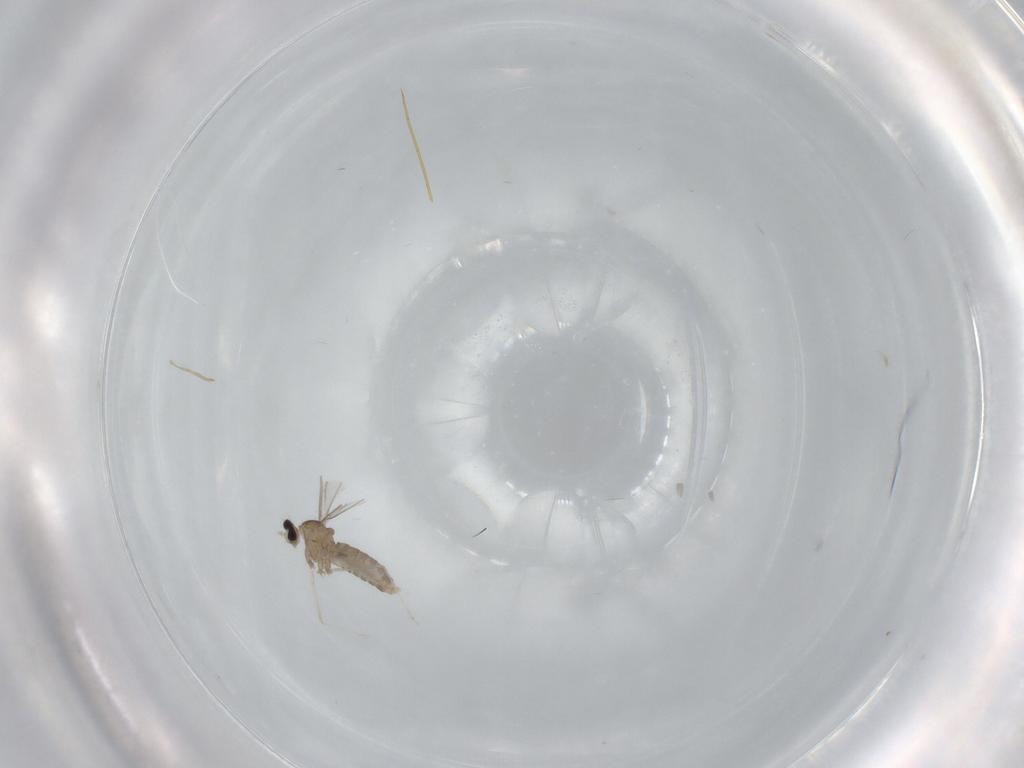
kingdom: Animalia
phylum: Arthropoda
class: Insecta
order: Diptera
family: Cecidomyiidae
